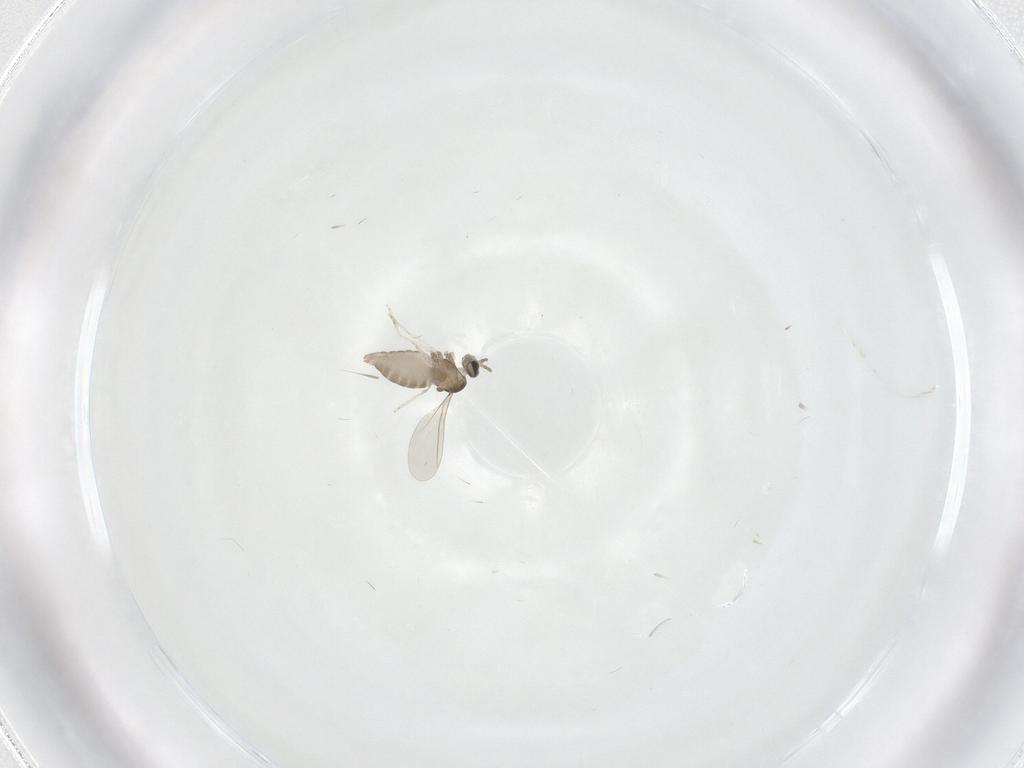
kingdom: Animalia
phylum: Arthropoda
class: Insecta
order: Diptera
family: Cecidomyiidae
